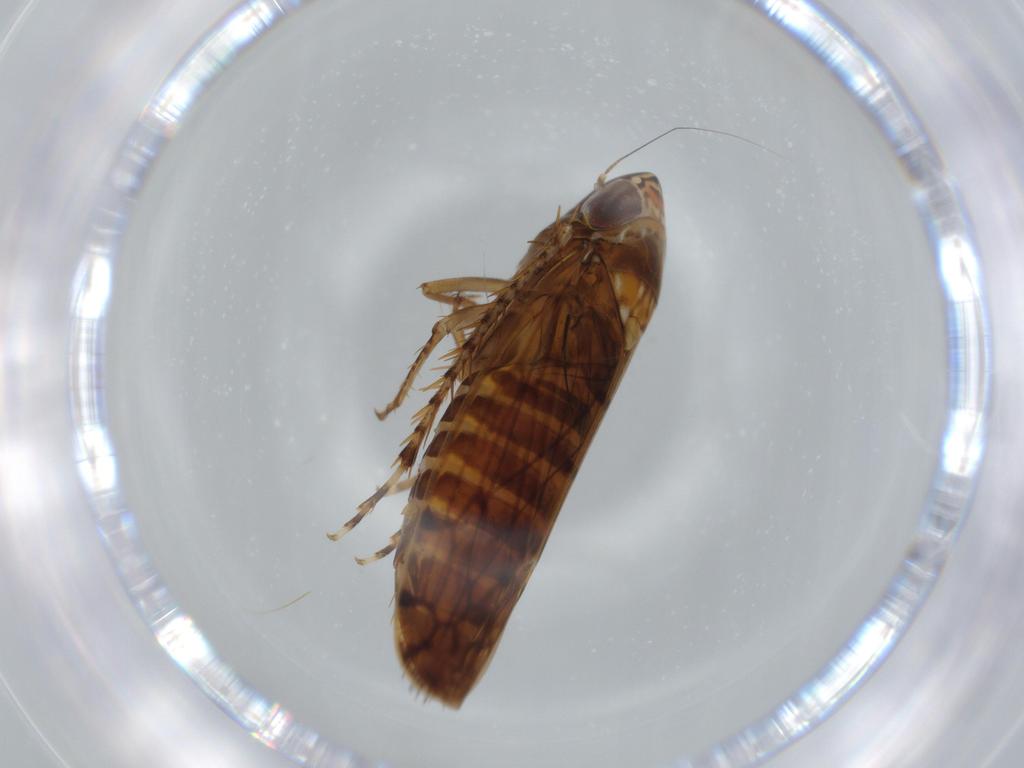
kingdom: Animalia
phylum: Arthropoda
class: Insecta
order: Hemiptera
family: Cicadellidae
